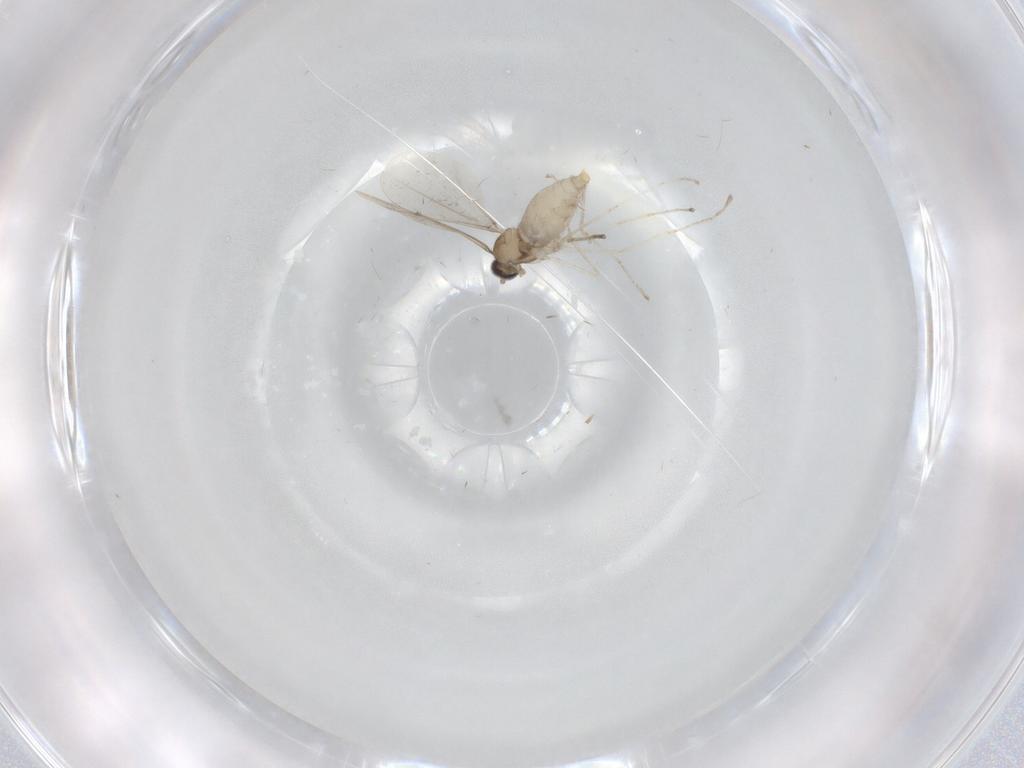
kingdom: Animalia
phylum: Arthropoda
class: Insecta
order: Diptera
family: Cecidomyiidae
